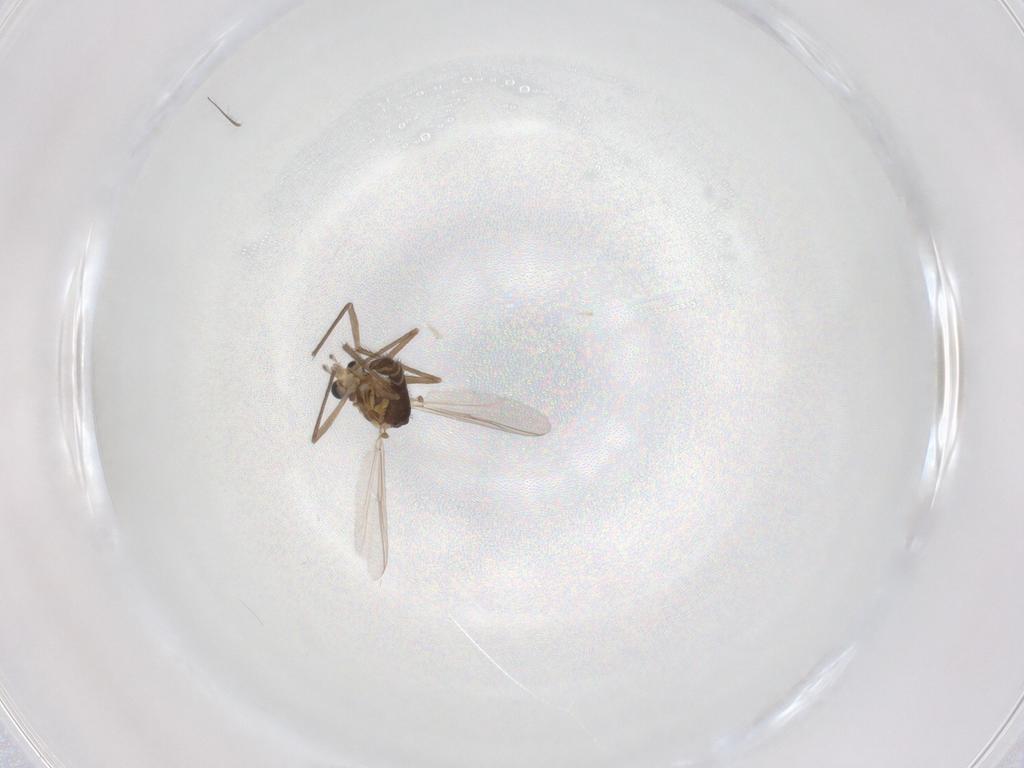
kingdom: Animalia
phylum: Arthropoda
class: Insecta
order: Diptera
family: Chironomidae
